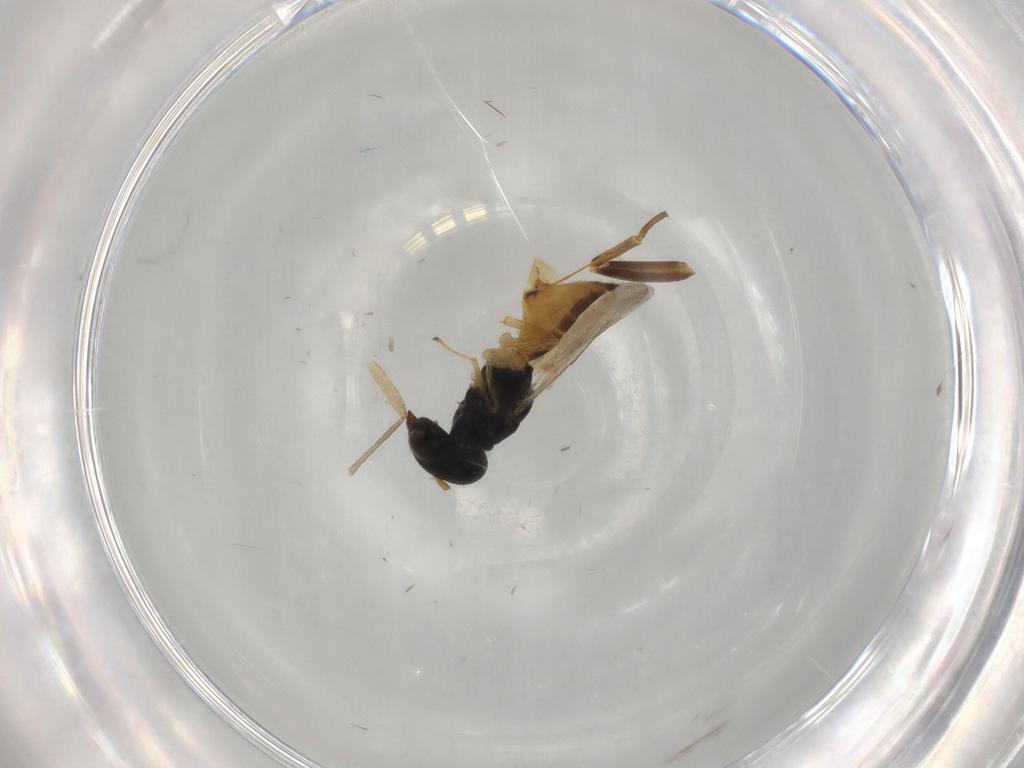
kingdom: Animalia
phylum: Arthropoda
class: Insecta
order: Hymenoptera
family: Pteromalidae
